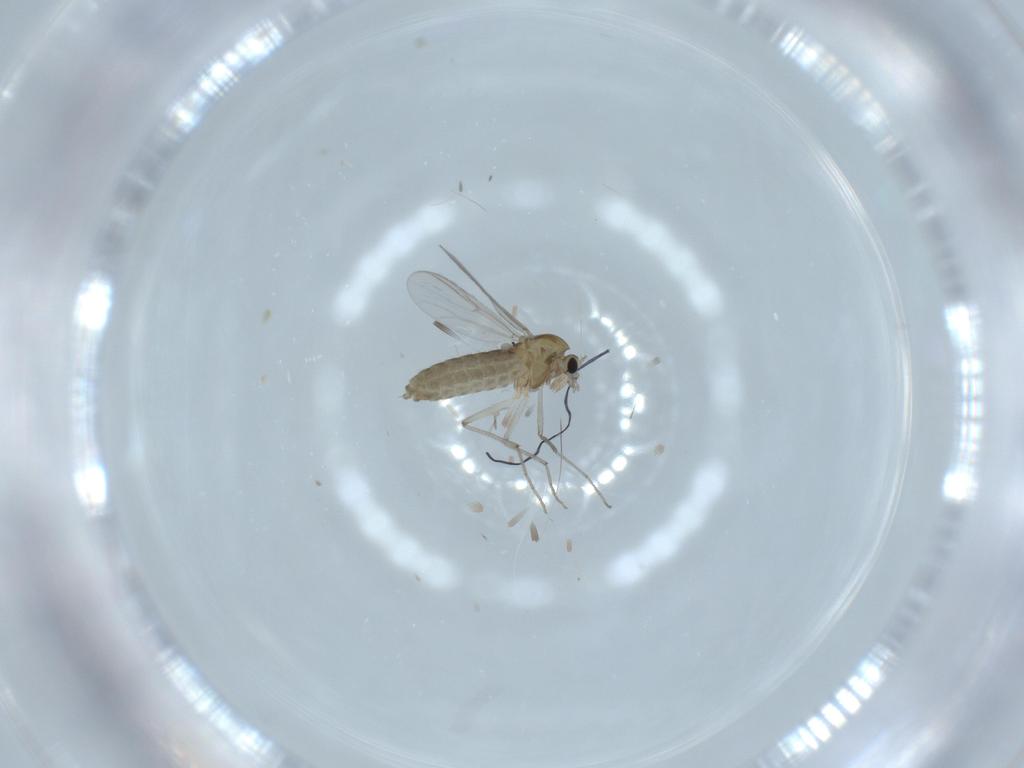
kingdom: Animalia
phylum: Arthropoda
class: Insecta
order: Diptera
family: Chironomidae
